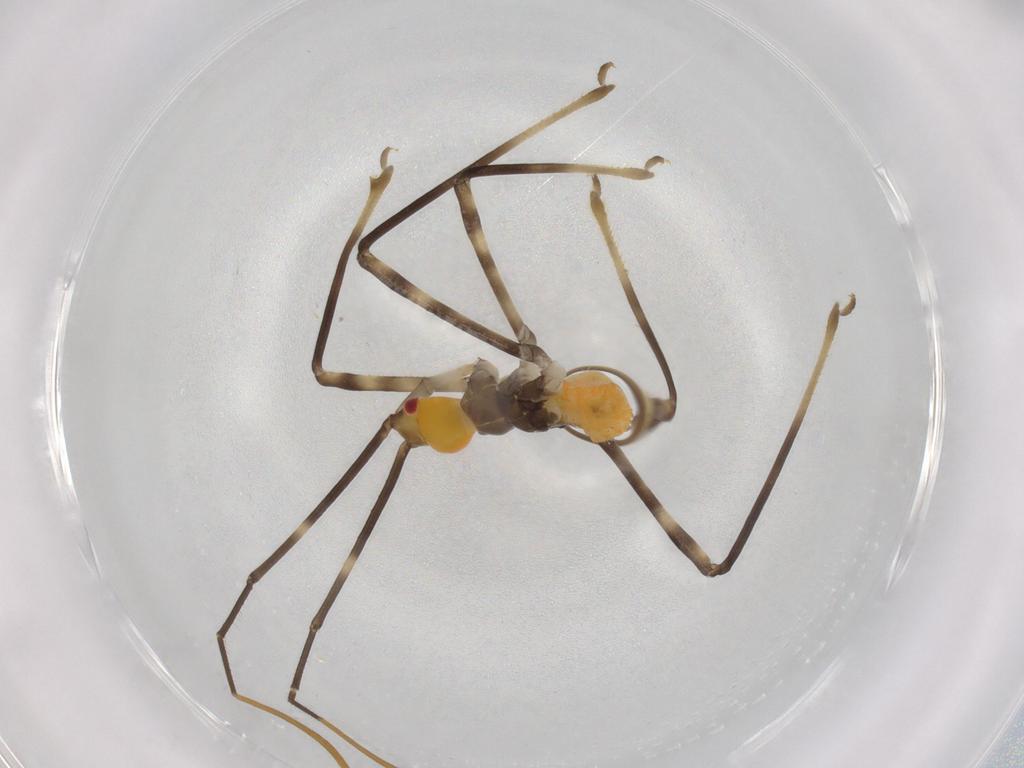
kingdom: Animalia
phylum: Arthropoda
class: Insecta
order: Hemiptera
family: Reduviidae
